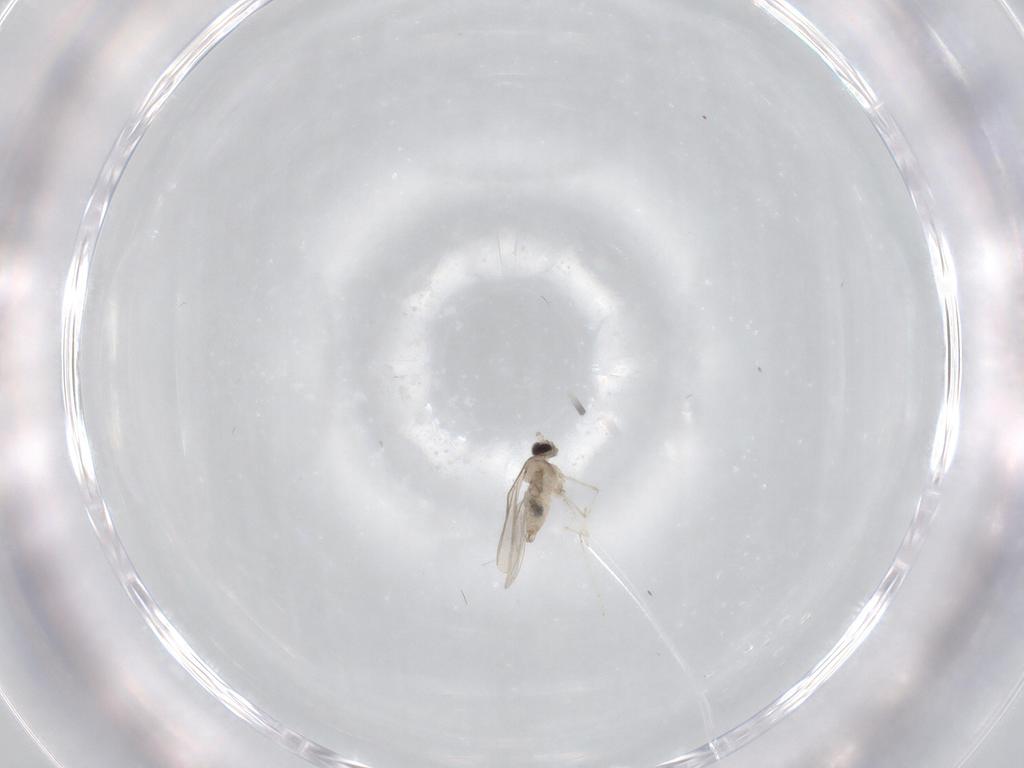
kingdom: Animalia
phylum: Arthropoda
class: Insecta
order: Diptera
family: Cecidomyiidae
